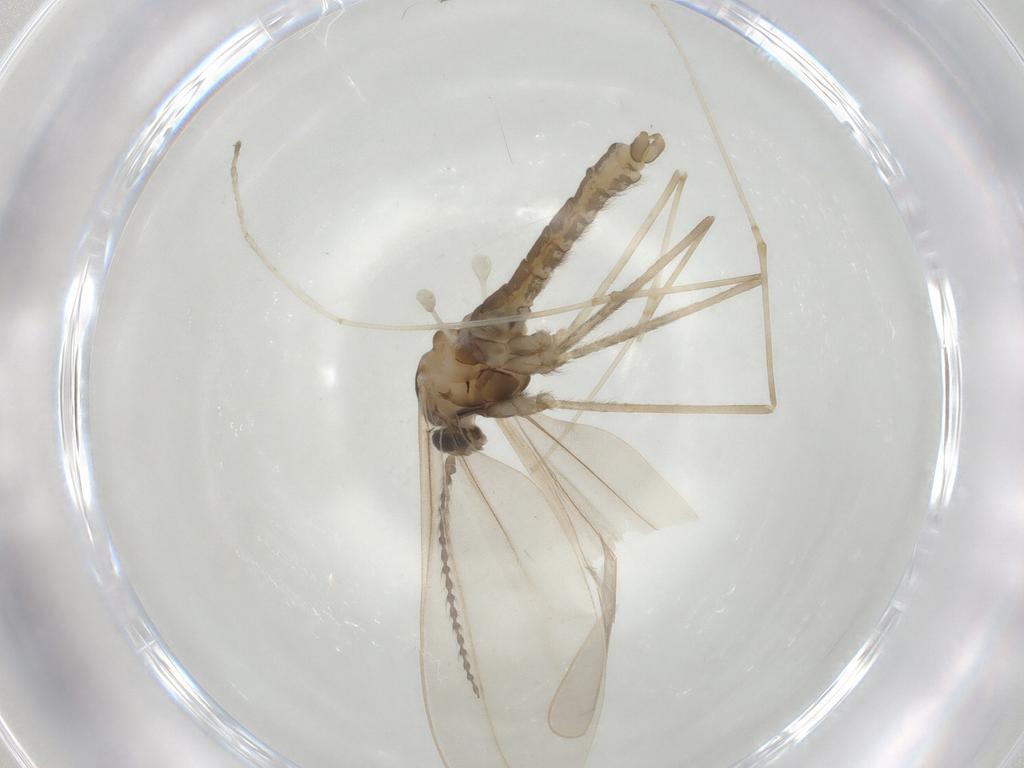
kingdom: Animalia
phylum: Arthropoda
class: Insecta
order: Diptera
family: Cecidomyiidae
